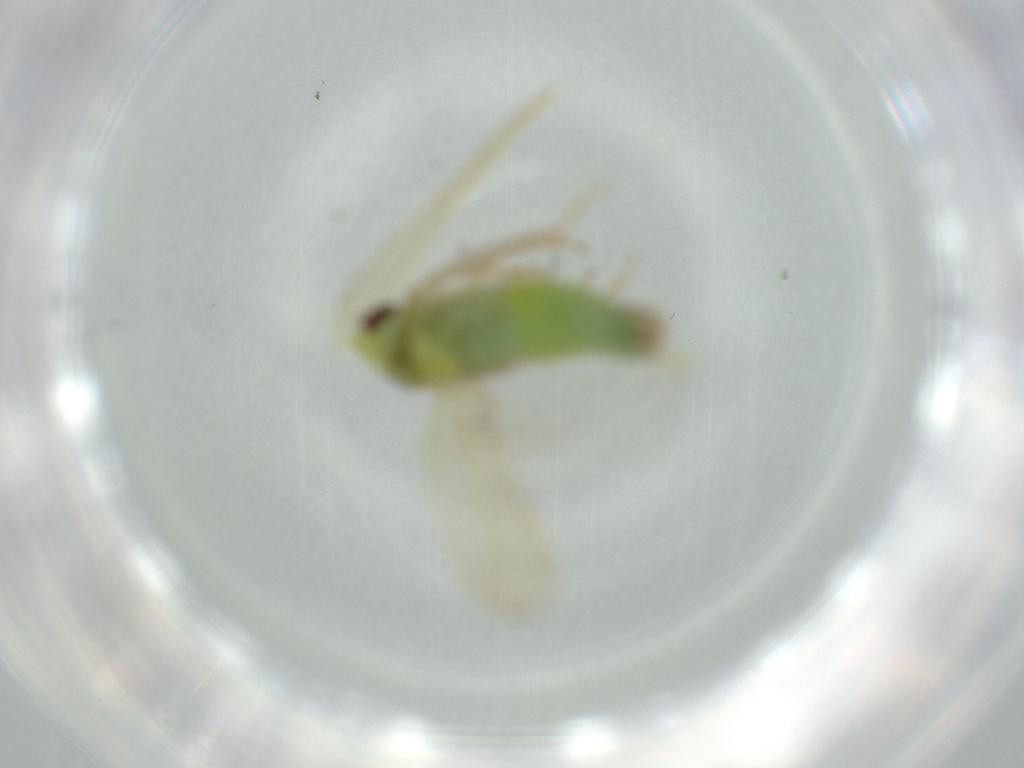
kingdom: Animalia
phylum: Arthropoda
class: Insecta
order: Hemiptera
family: Cicadellidae
